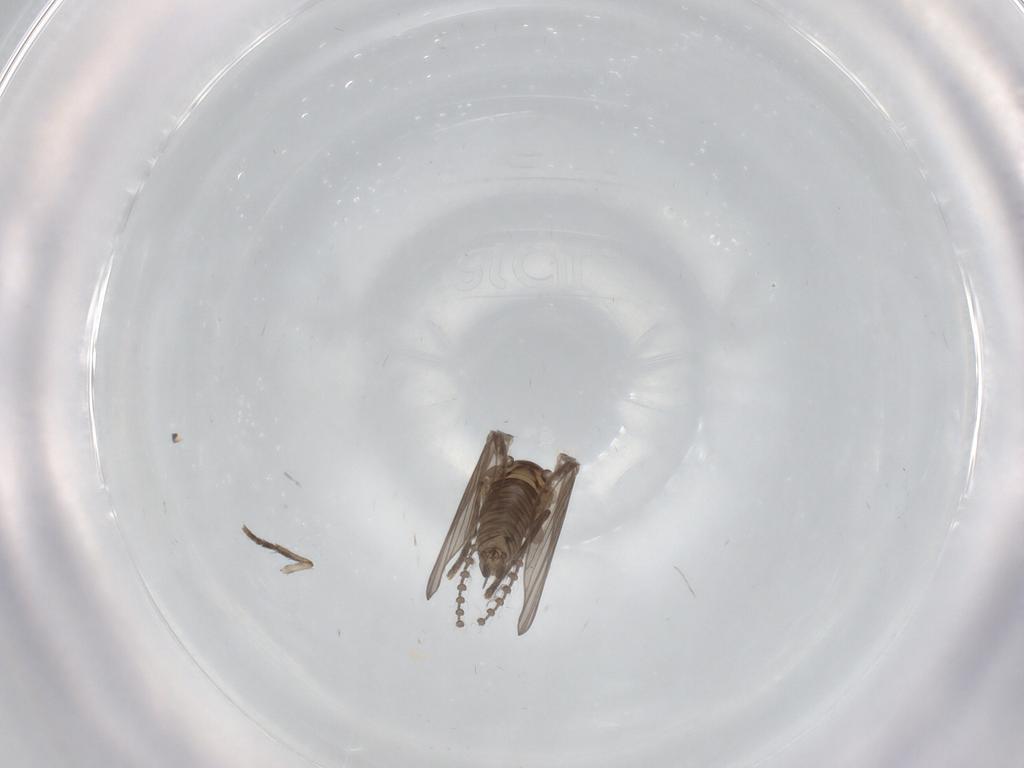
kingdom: Animalia
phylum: Arthropoda
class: Insecta
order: Diptera
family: Psychodidae
